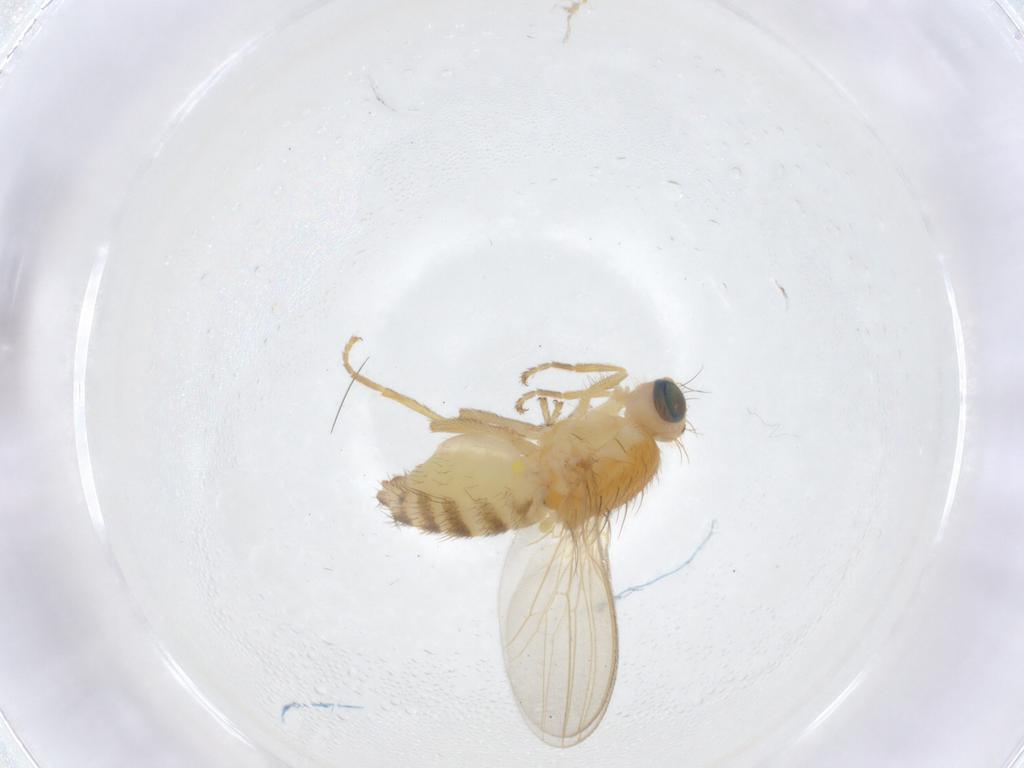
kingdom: Animalia
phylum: Arthropoda
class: Insecta
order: Diptera
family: Chyromyidae
